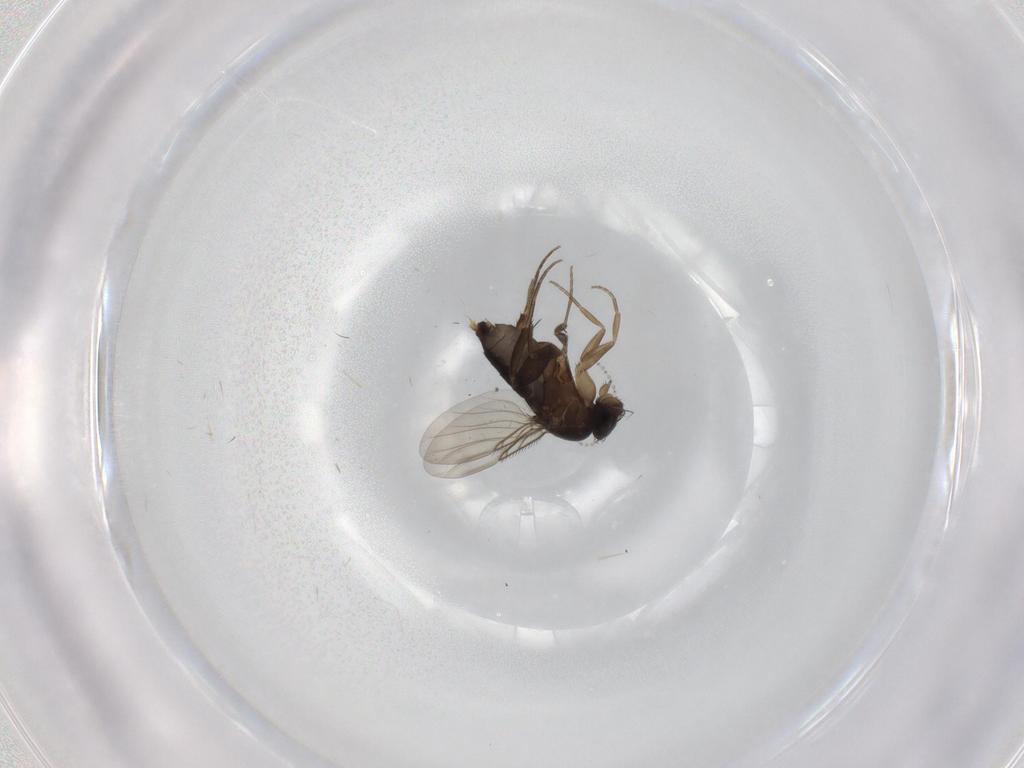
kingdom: Animalia
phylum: Arthropoda
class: Insecta
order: Diptera
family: Phoridae
